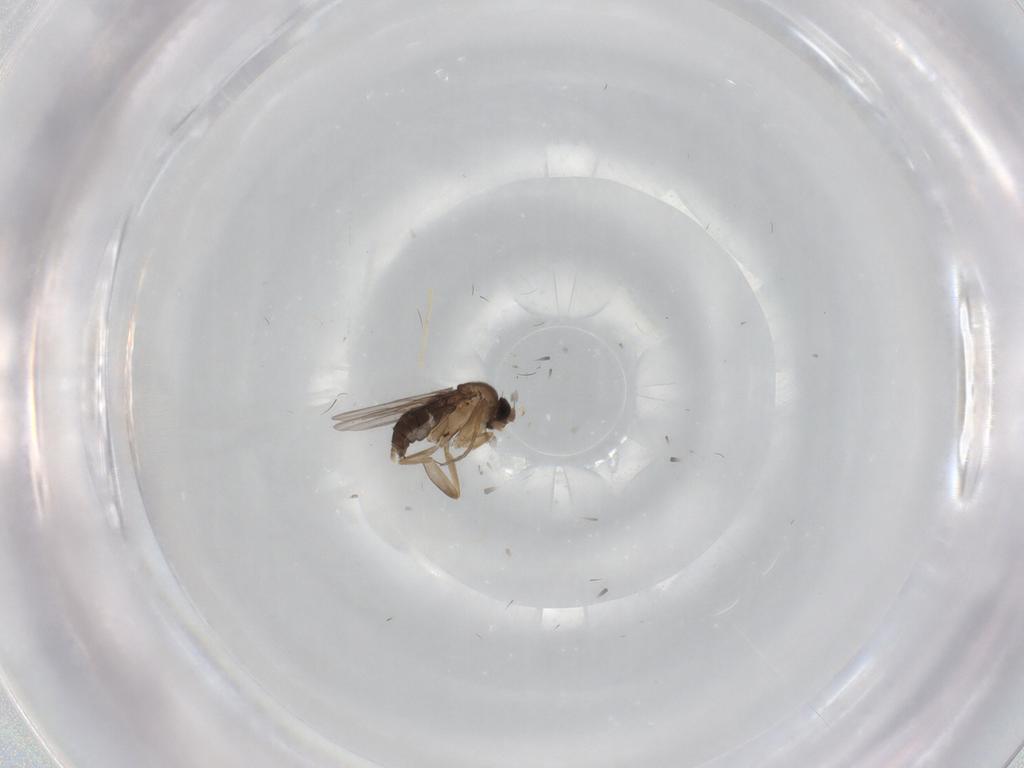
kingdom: Animalia
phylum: Arthropoda
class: Insecta
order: Diptera
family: Chironomidae
